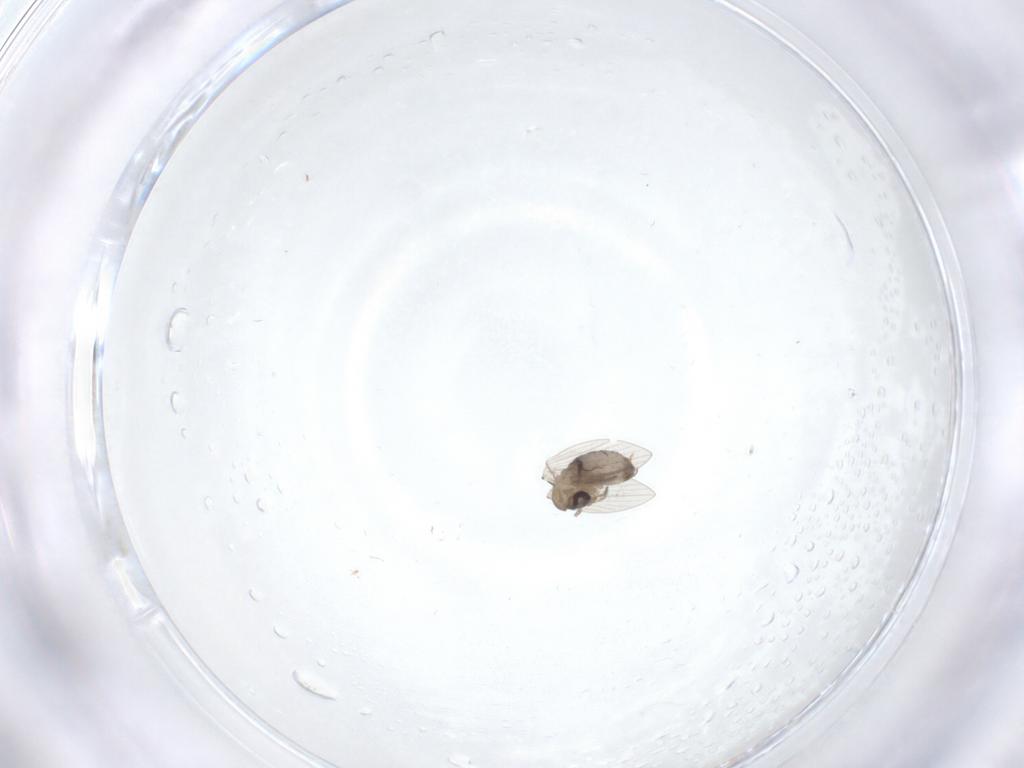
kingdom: Animalia
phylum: Arthropoda
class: Insecta
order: Diptera
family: Psychodidae
